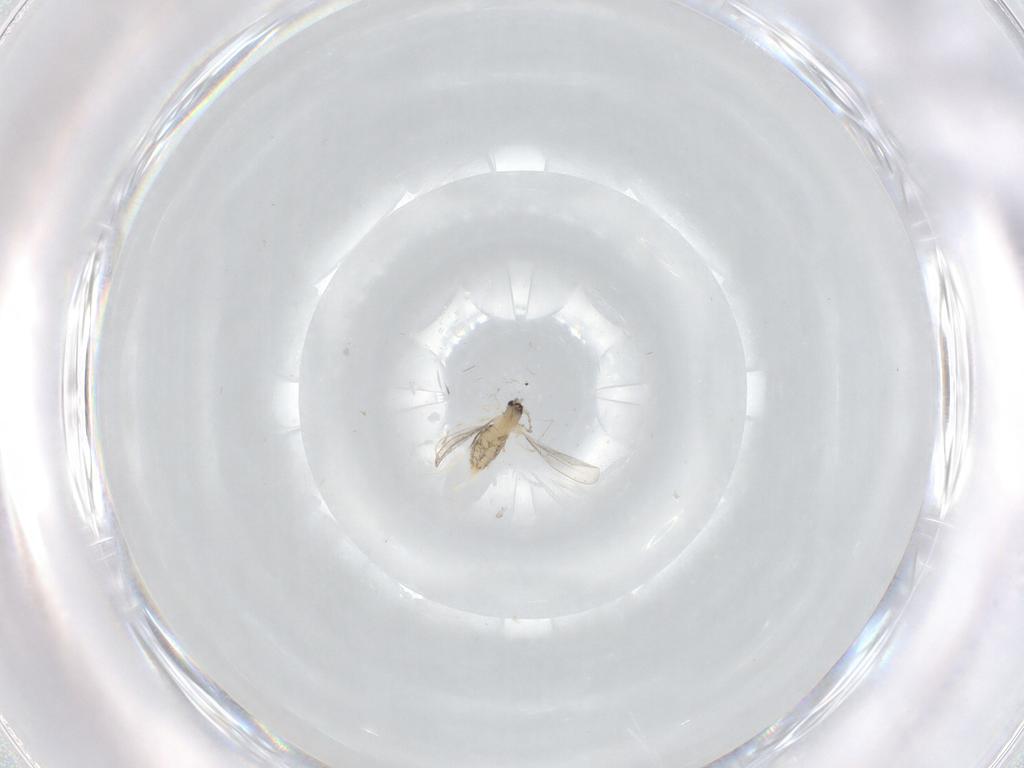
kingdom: Animalia
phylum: Arthropoda
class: Insecta
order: Diptera
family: Cecidomyiidae
